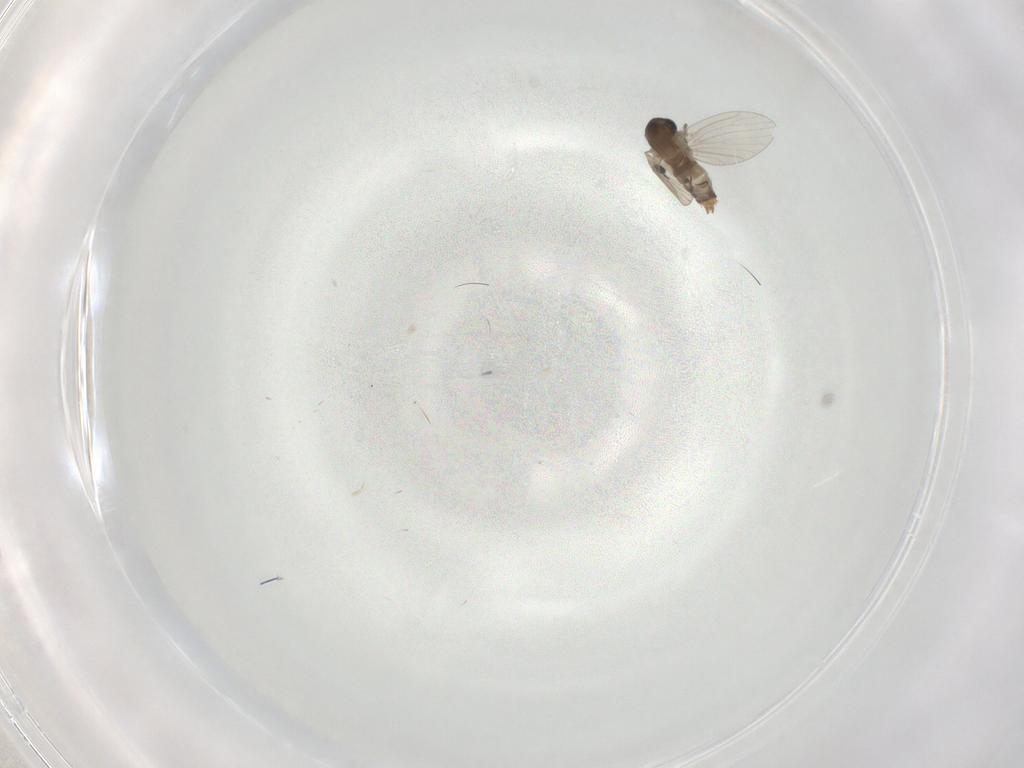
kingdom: Animalia
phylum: Arthropoda
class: Insecta
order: Diptera
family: Dolichopodidae
